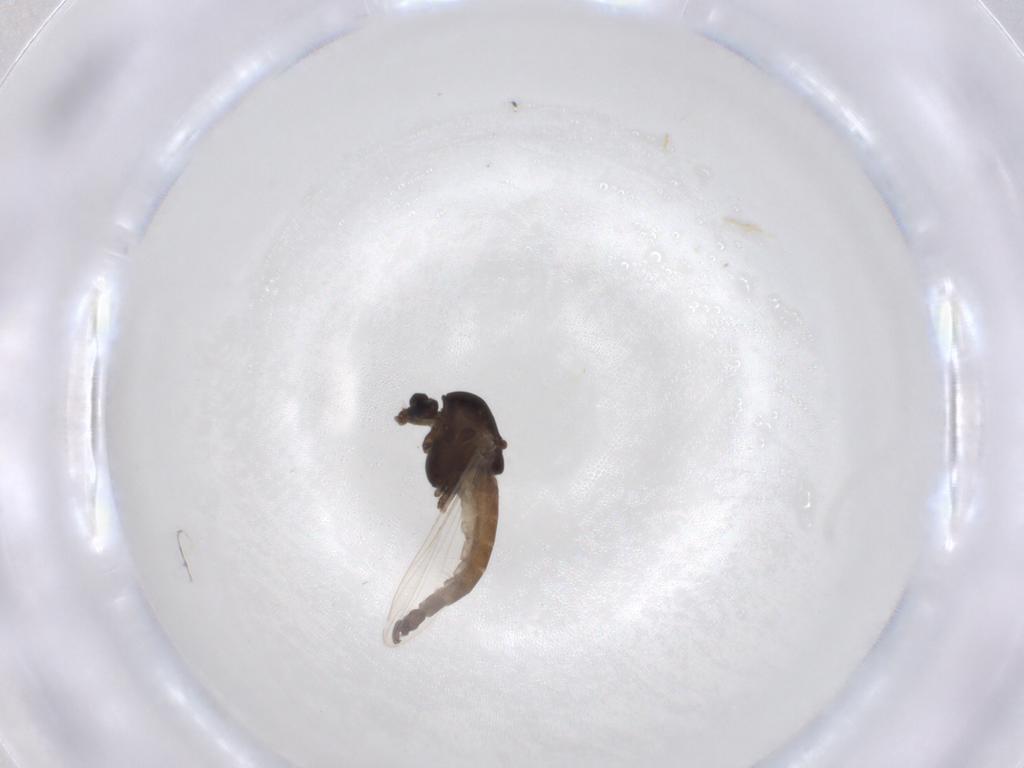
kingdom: Animalia
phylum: Arthropoda
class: Insecta
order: Diptera
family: Chironomidae
